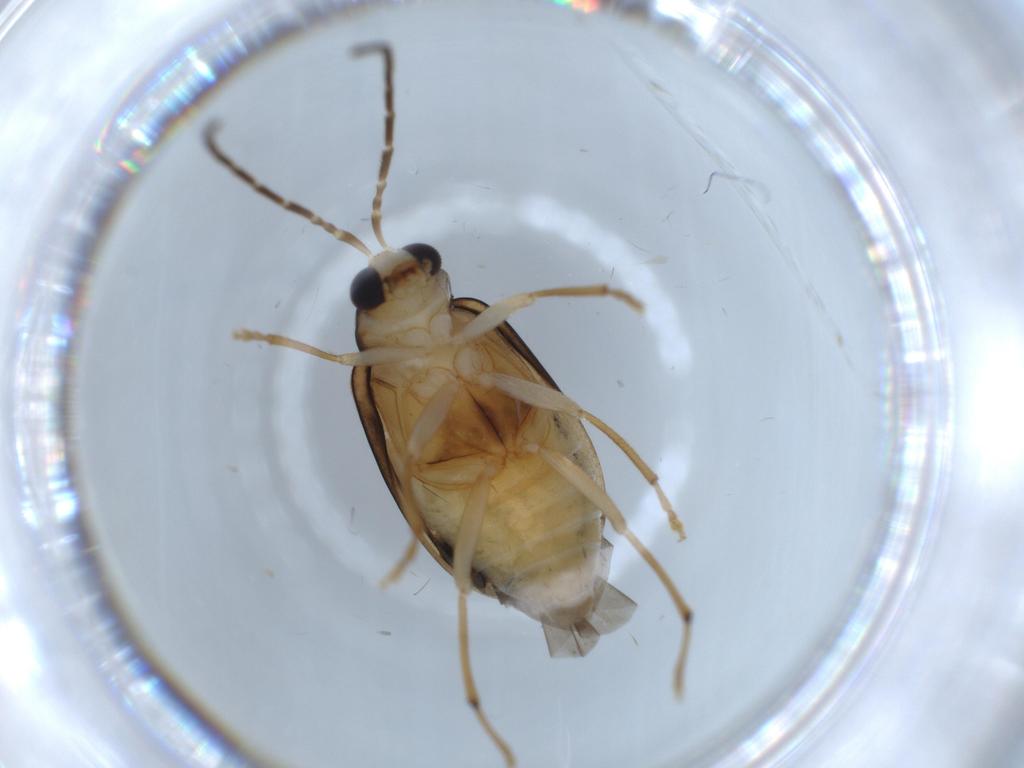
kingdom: Animalia
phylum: Arthropoda
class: Insecta
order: Coleoptera
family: Chrysomelidae
